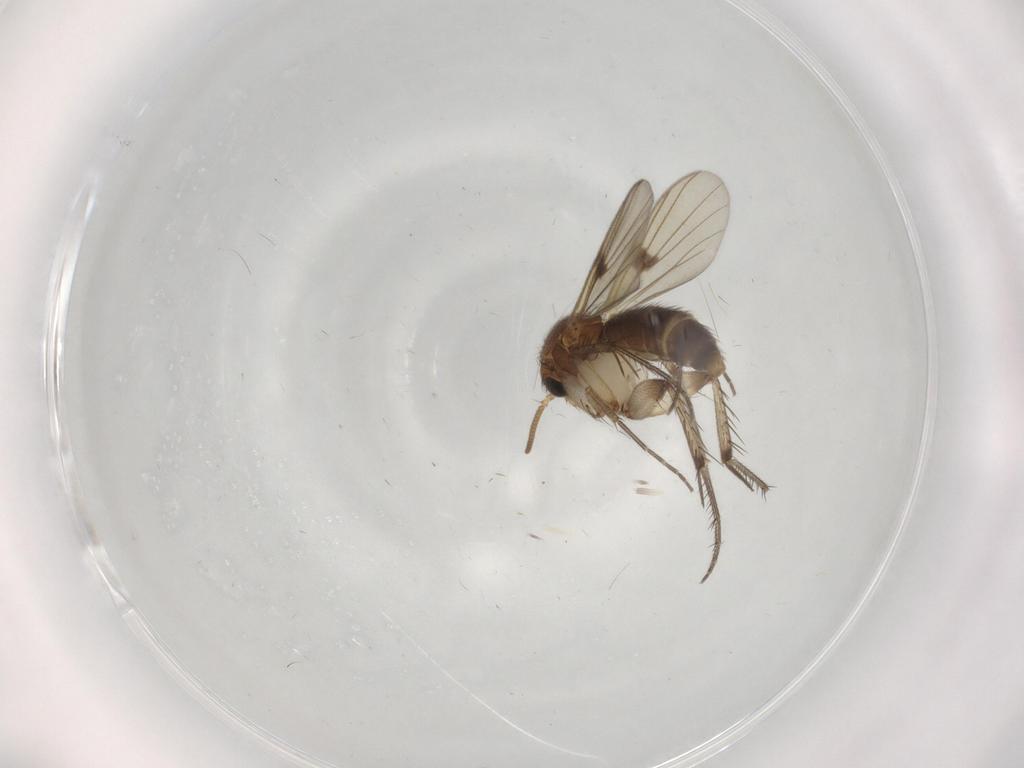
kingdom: Animalia
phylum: Arthropoda
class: Insecta
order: Diptera
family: Mycetophilidae
